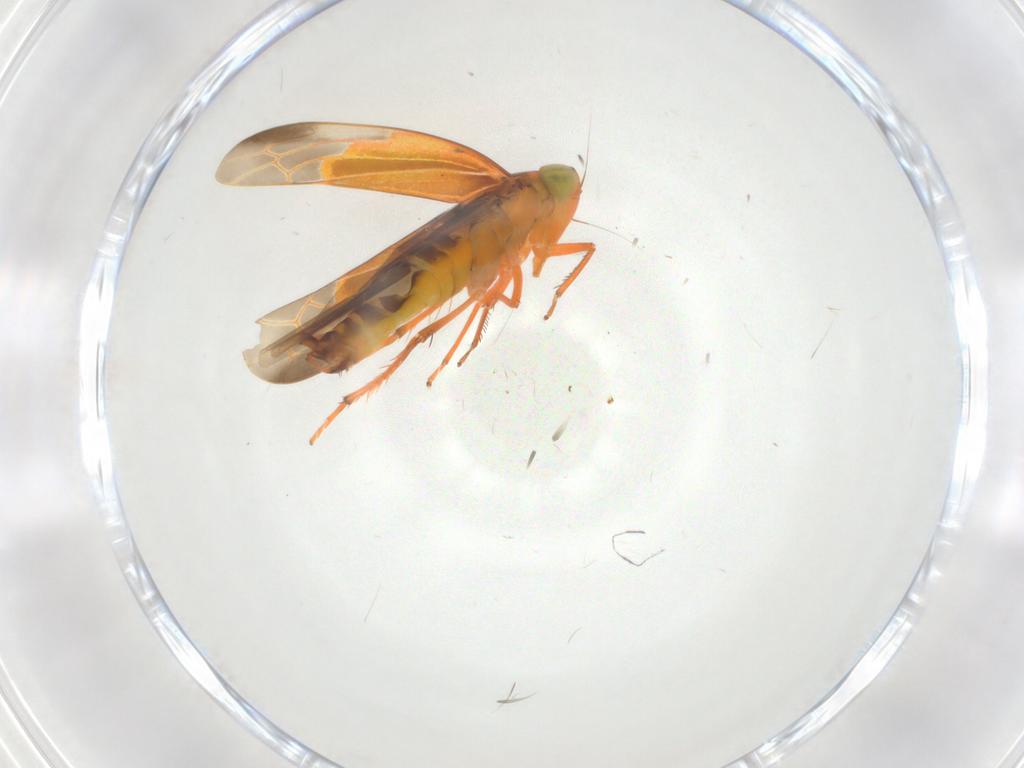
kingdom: Animalia
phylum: Arthropoda
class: Insecta
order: Hemiptera
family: Cicadellidae
